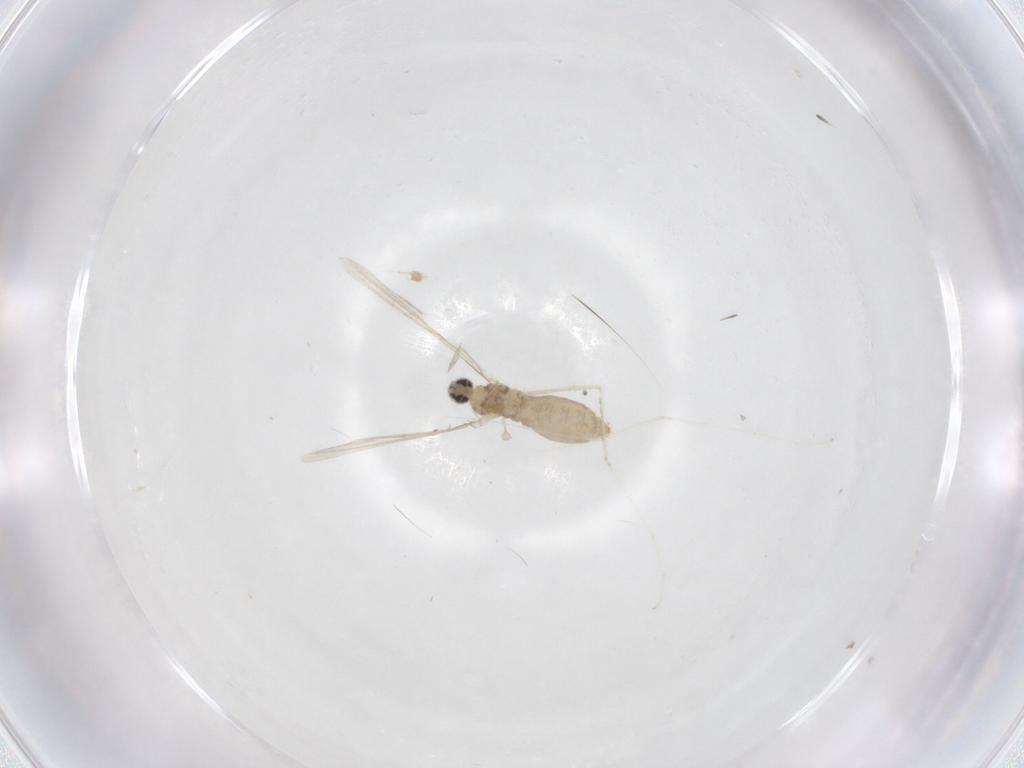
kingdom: Animalia
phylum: Arthropoda
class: Insecta
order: Diptera
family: Cecidomyiidae
